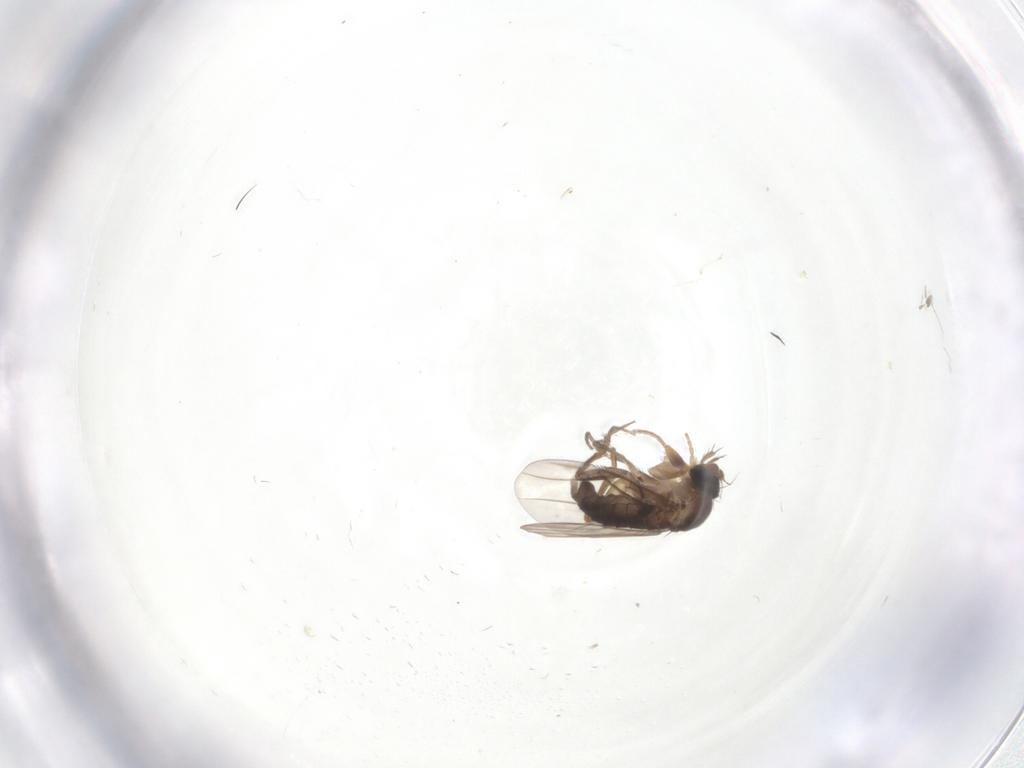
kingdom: Animalia
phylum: Arthropoda
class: Insecta
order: Diptera
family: Phoridae
